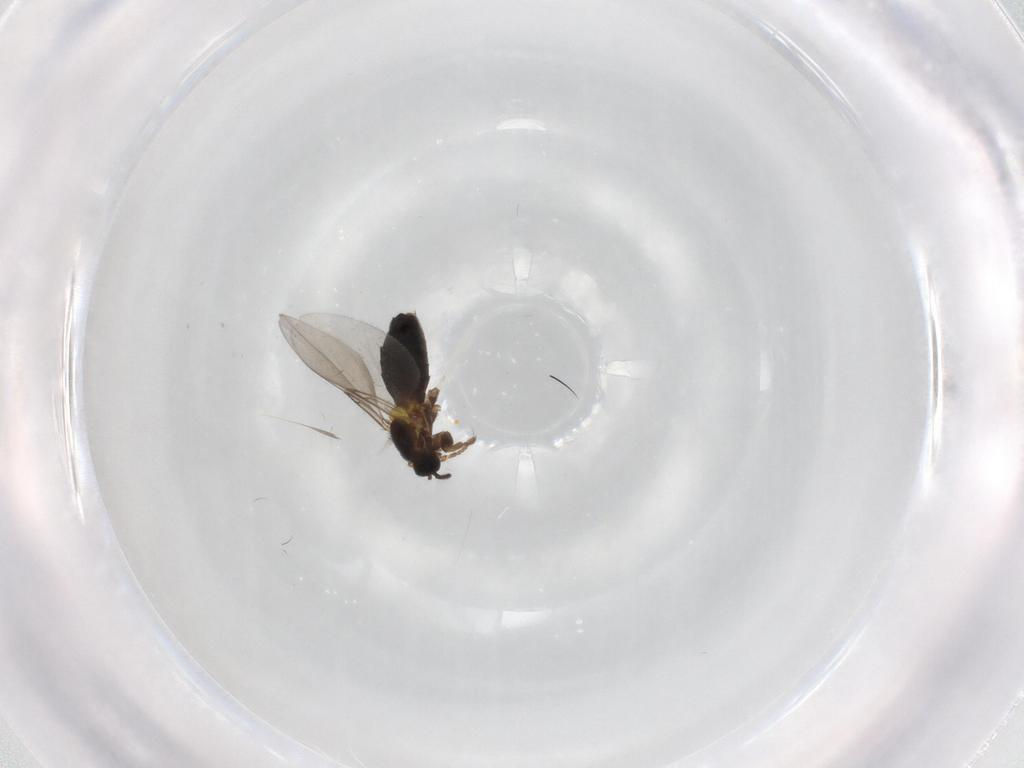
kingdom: Animalia
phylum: Arthropoda
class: Insecta
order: Diptera
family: Scatopsidae
